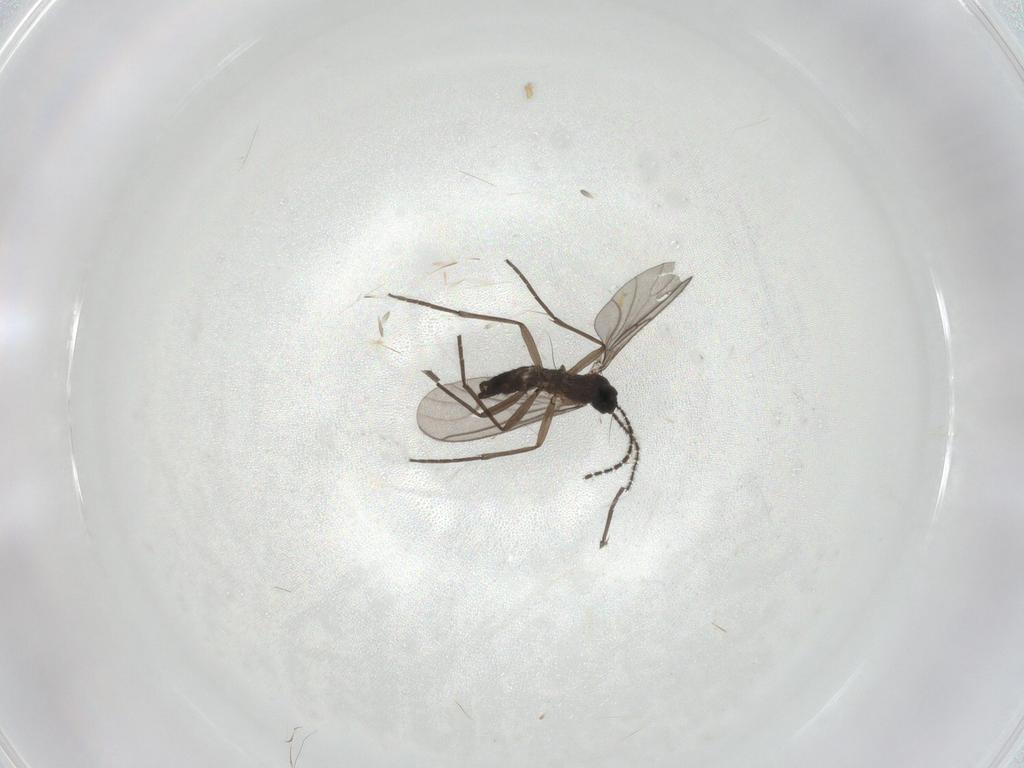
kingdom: Animalia
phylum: Arthropoda
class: Insecta
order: Diptera
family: Sciaridae
